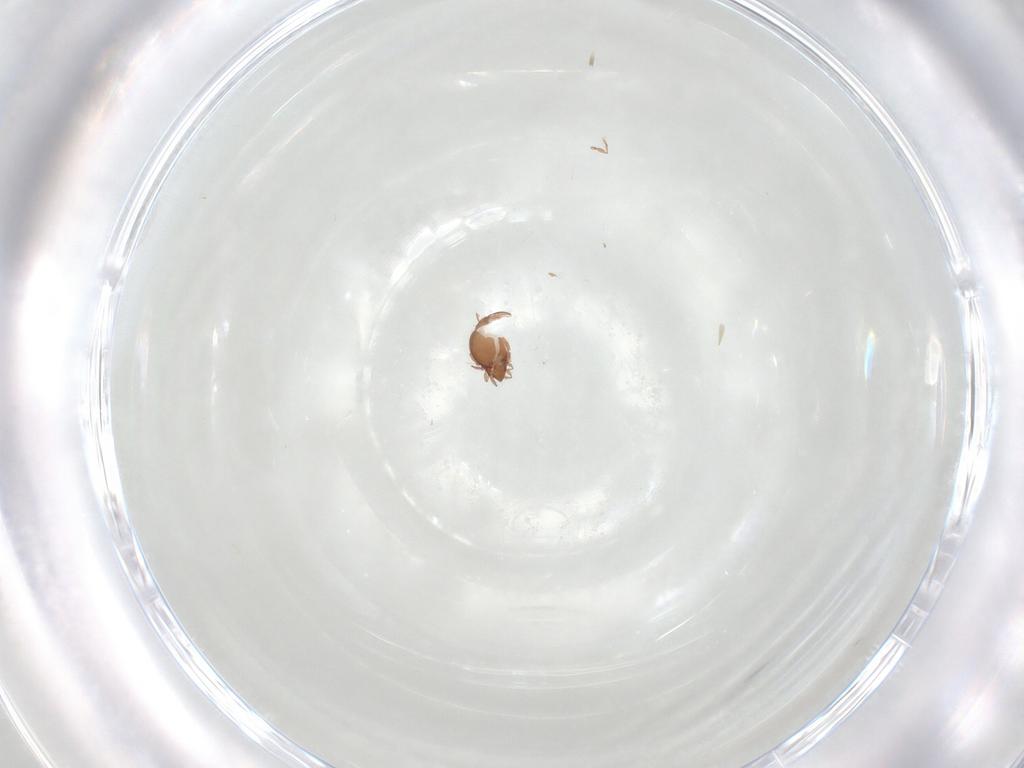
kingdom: Animalia
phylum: Arthropoda
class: Arachnida
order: Sarcoptiformes
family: Oribatulidae
